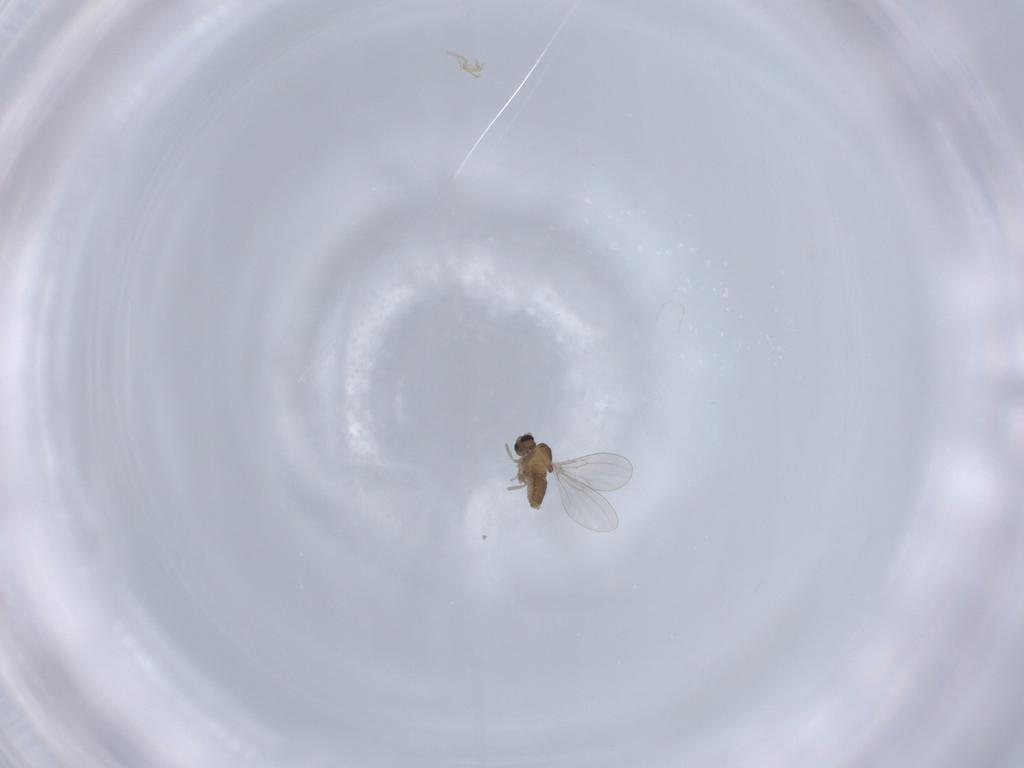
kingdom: Animalia
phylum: Arthropoda
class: Insecta
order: Diptera
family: Cecidomyiidae
